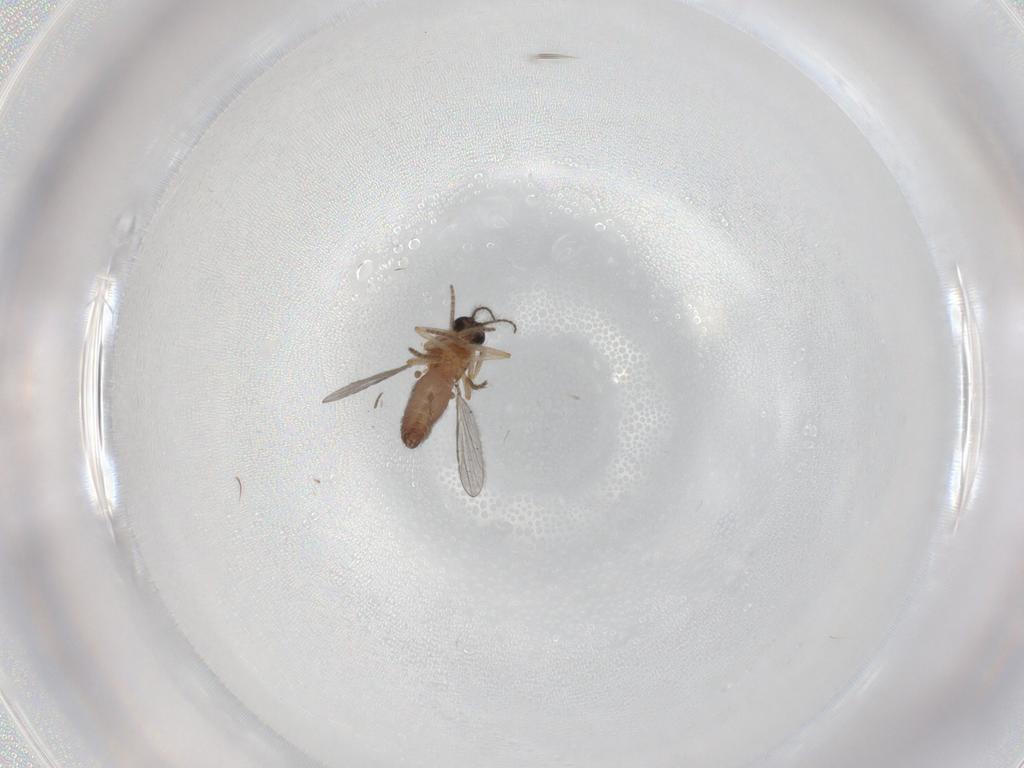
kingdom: Animalia
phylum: Arthropoda
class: Insecta
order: Diptera
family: Ceratopogonidae
